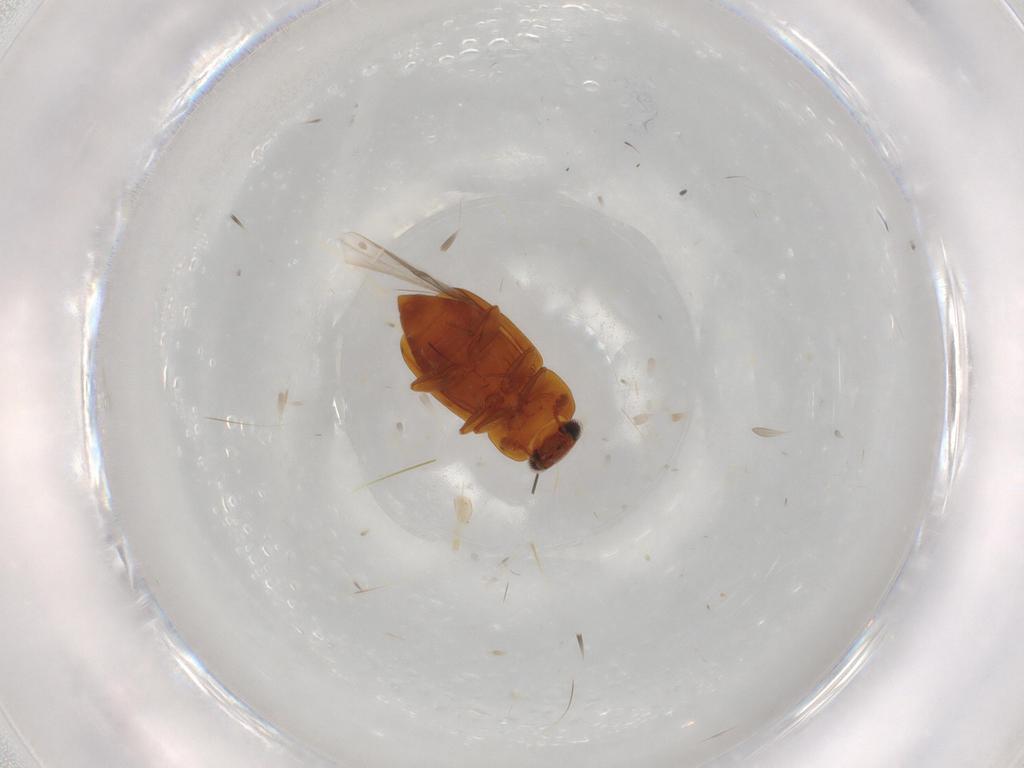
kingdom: Animalia
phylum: Arthropoda
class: Insecta
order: Coleoptera
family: Nitidulidae
